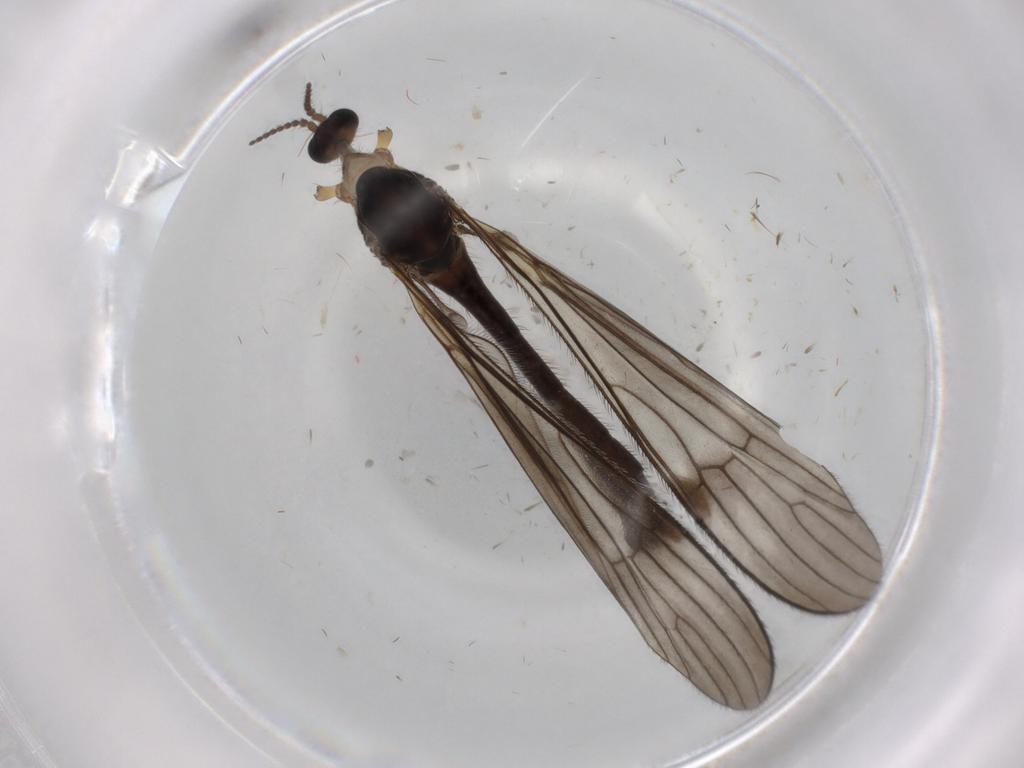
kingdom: Animalia
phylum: Arthropoda
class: Insecta
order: Diptera
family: Limoniidae
